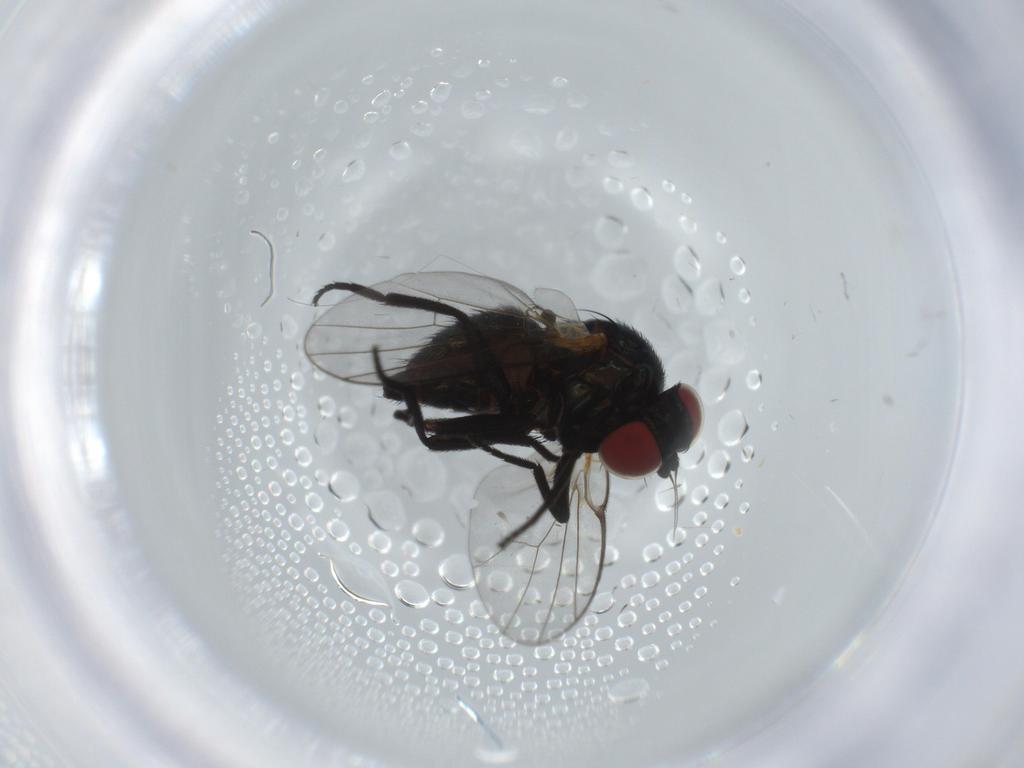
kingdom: Animalia
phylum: Arthropoda
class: Insecta
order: Diptera
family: Agromyzidae
